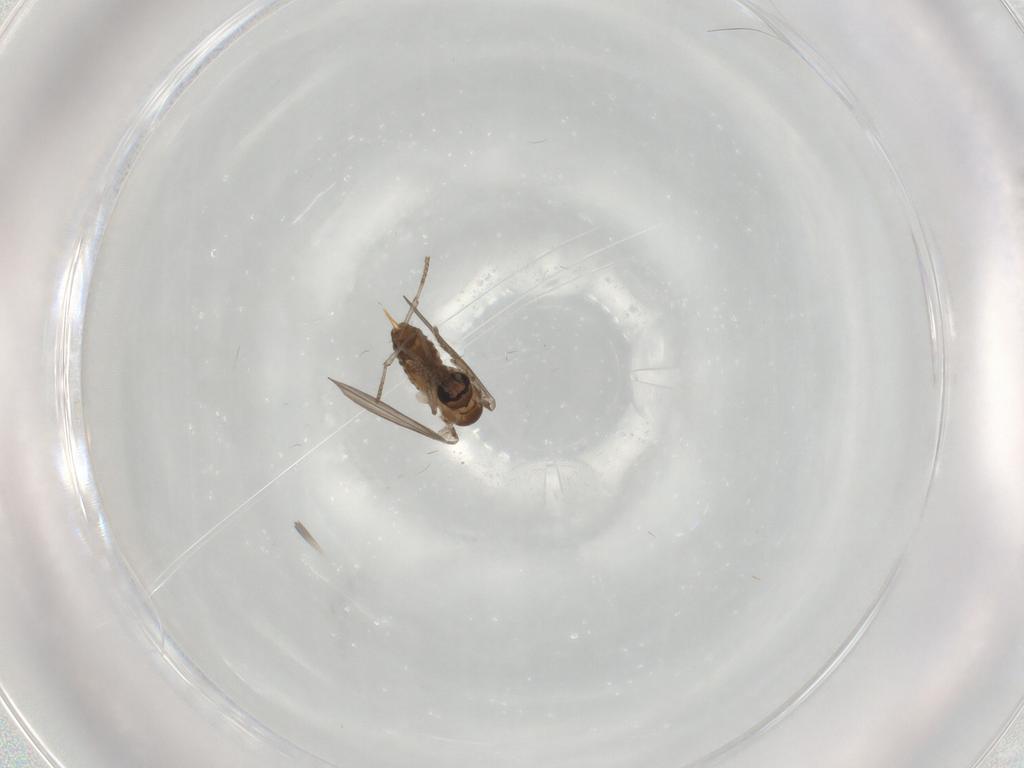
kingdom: Animalia
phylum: Arthropoda
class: Insecta
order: Diptera
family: Psychodidae
